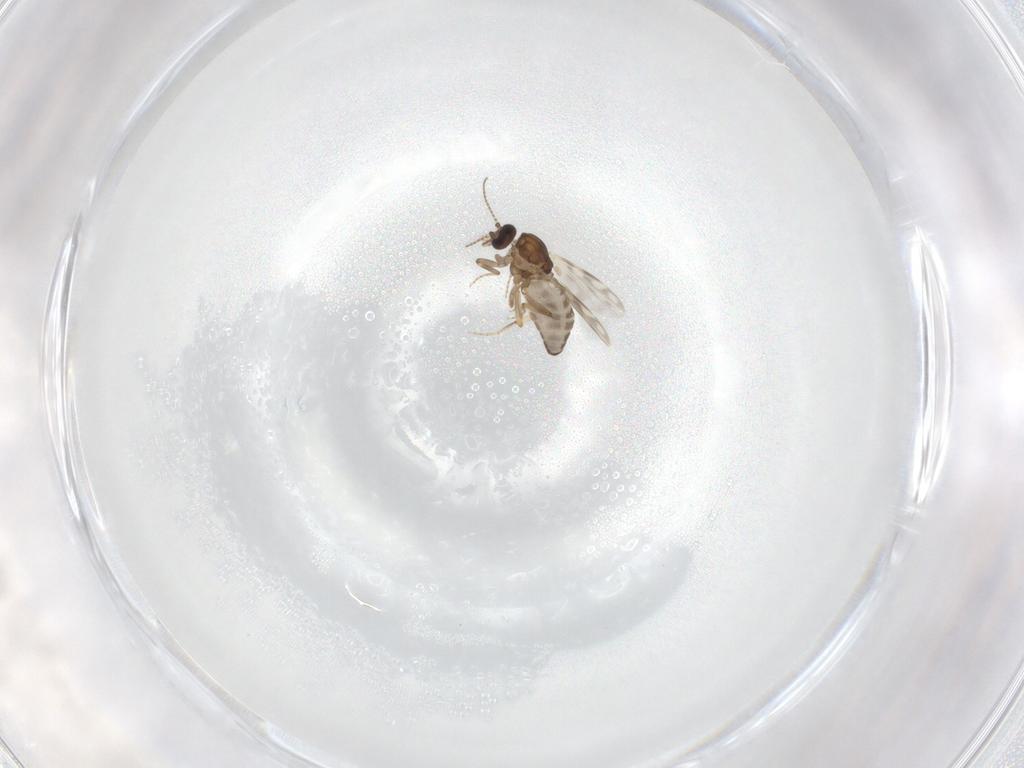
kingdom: Animalia
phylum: Arthropoda
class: Insecta
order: Diptera
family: Ceratopogonidae
